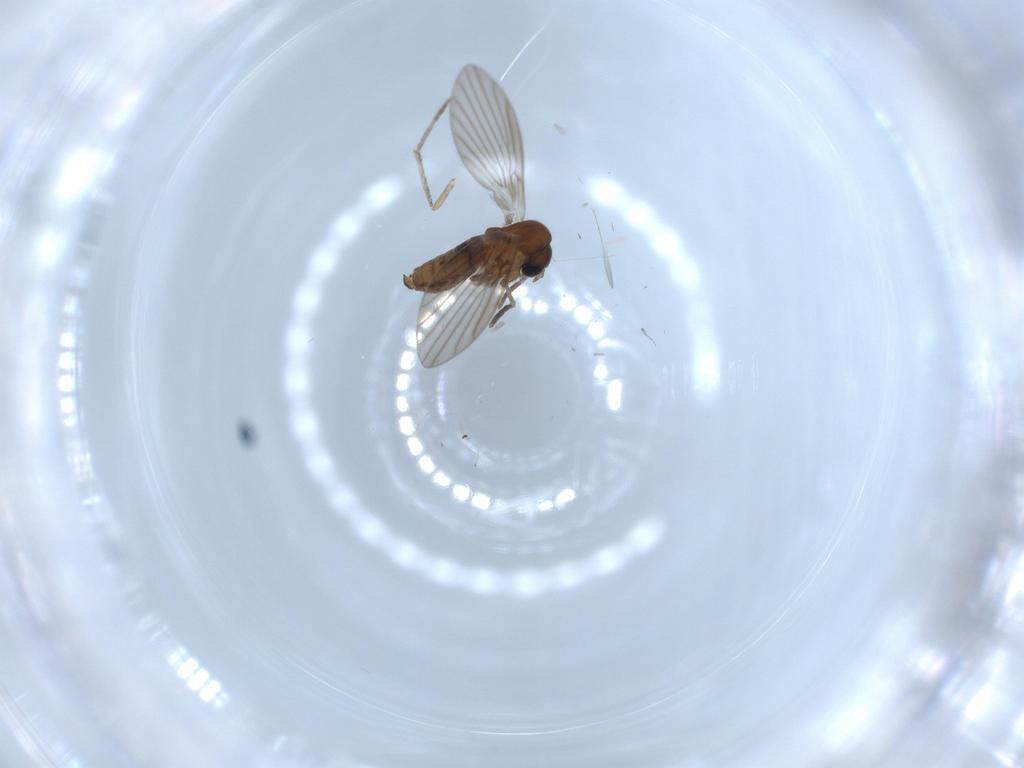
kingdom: Animalia
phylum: Arthropoda
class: Insecta
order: Diptera
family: Psychodidae
